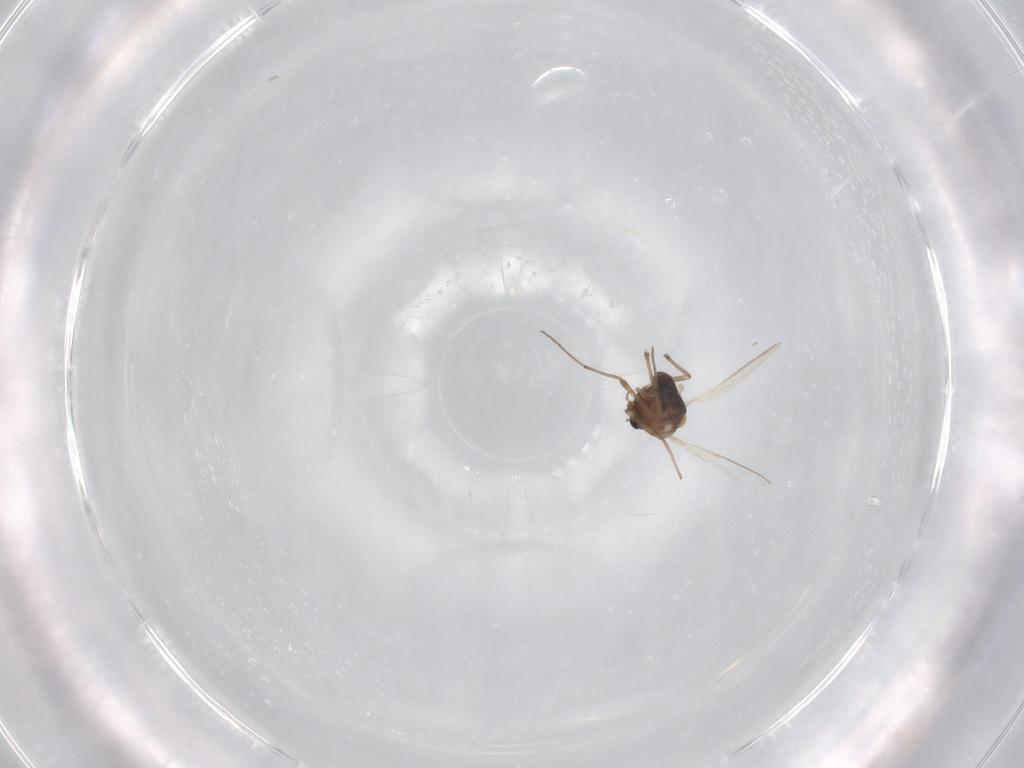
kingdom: Animalia
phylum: Arthropoda
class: Insecta
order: Diptera
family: Chironomidae
